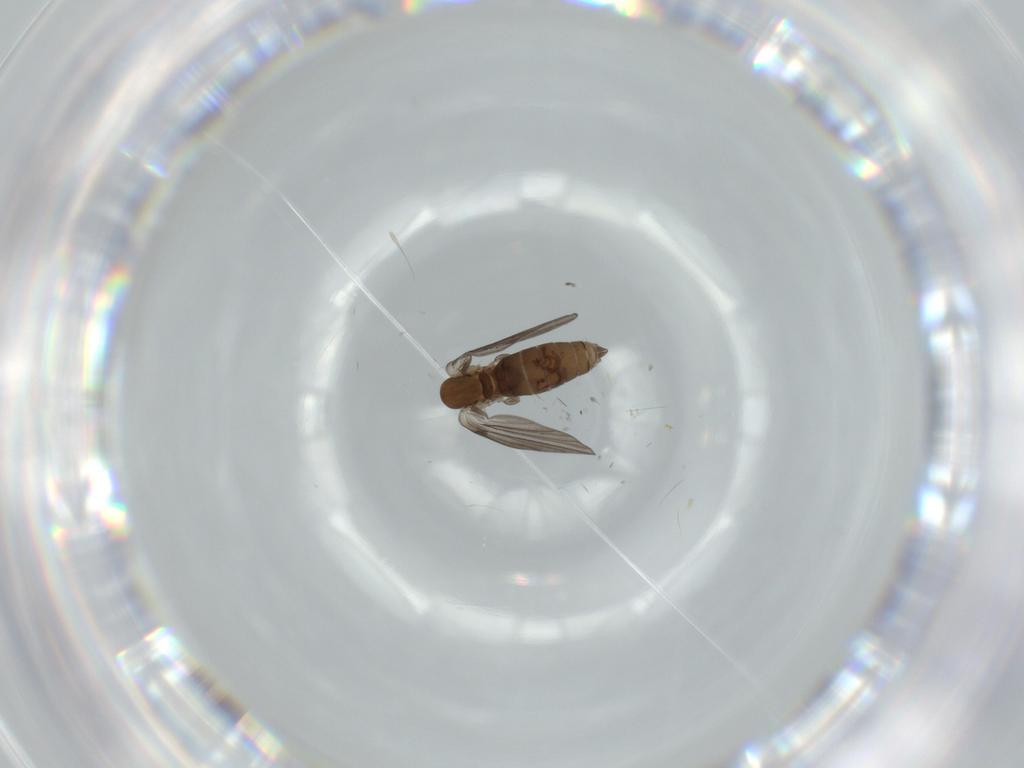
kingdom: Animalia
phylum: Arthropoda
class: Insecta
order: Diptera
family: Psychodidae
